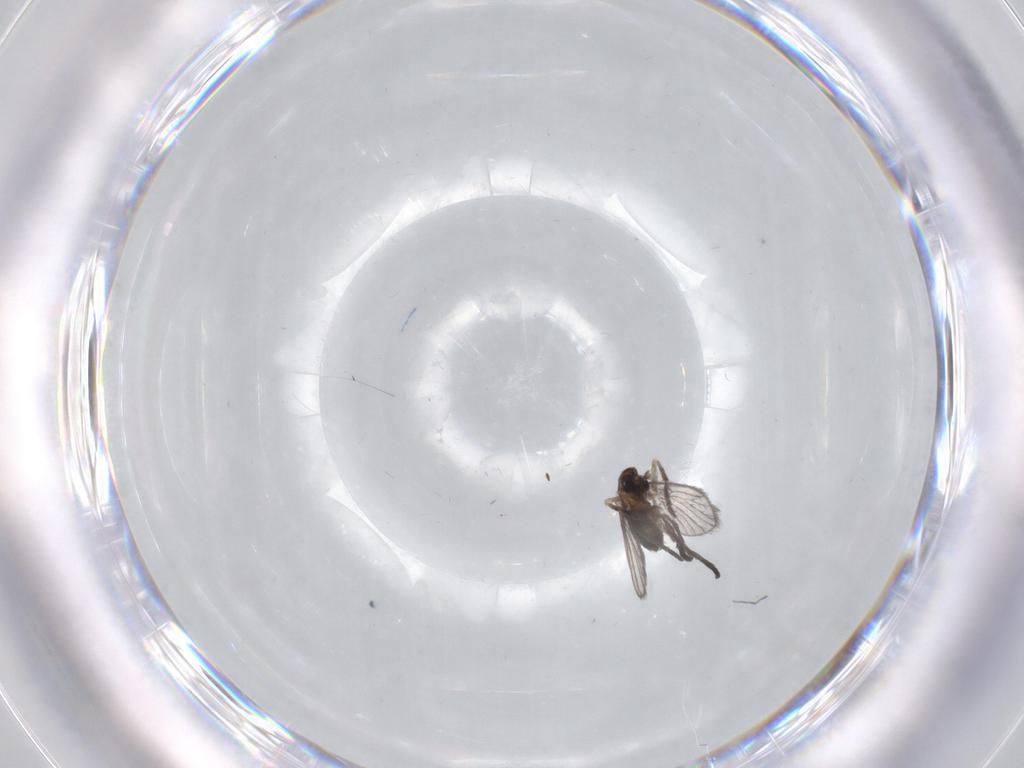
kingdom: Animalia
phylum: Arthropoda
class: Insecta
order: Diptera
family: Psychodidae
